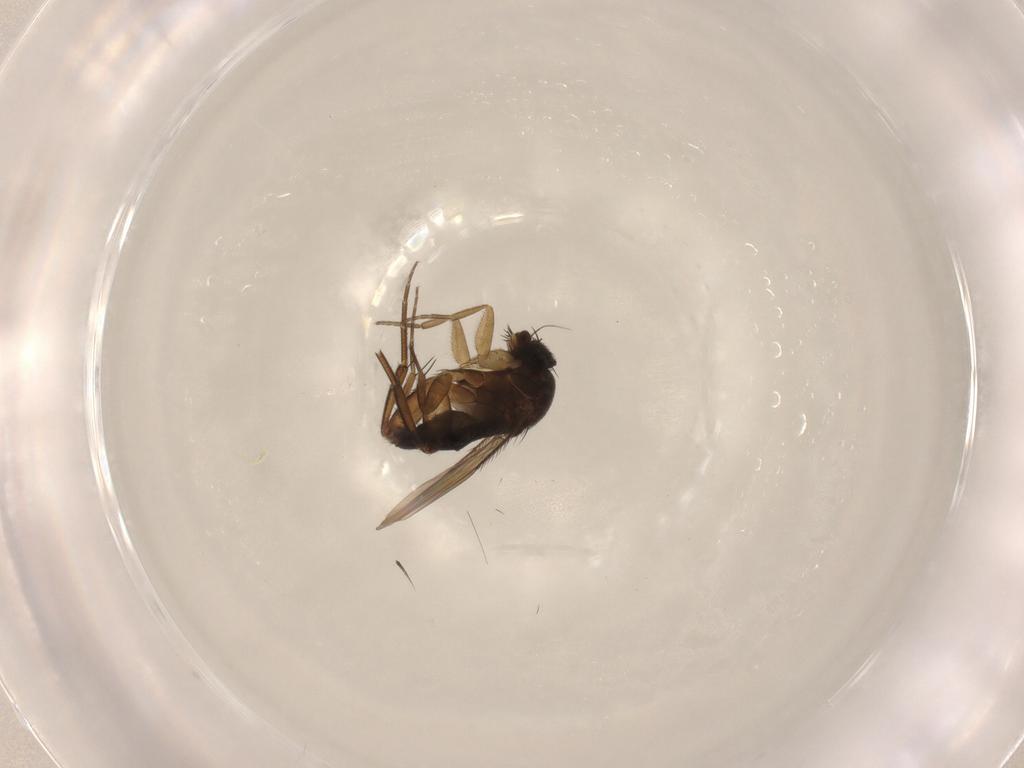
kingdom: Animalia
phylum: Arthropoda
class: Insecta
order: Diptera
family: Phoridae
